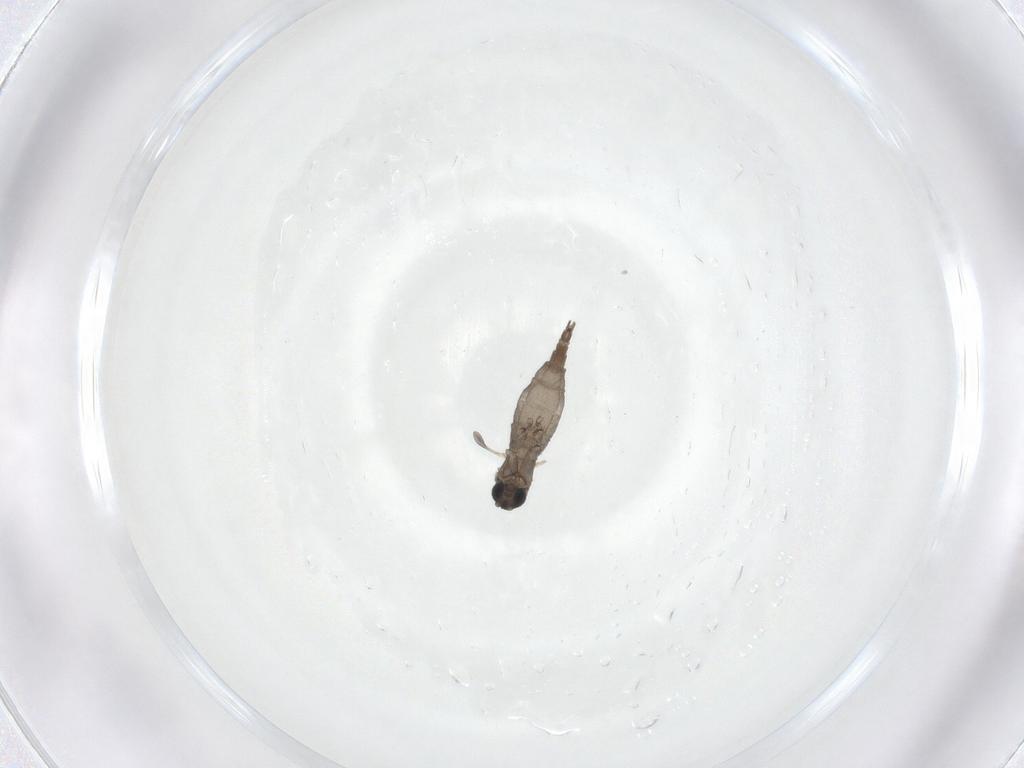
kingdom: Animalia
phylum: Arthropoda
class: Insecta
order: Diptera
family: Sciaridae
